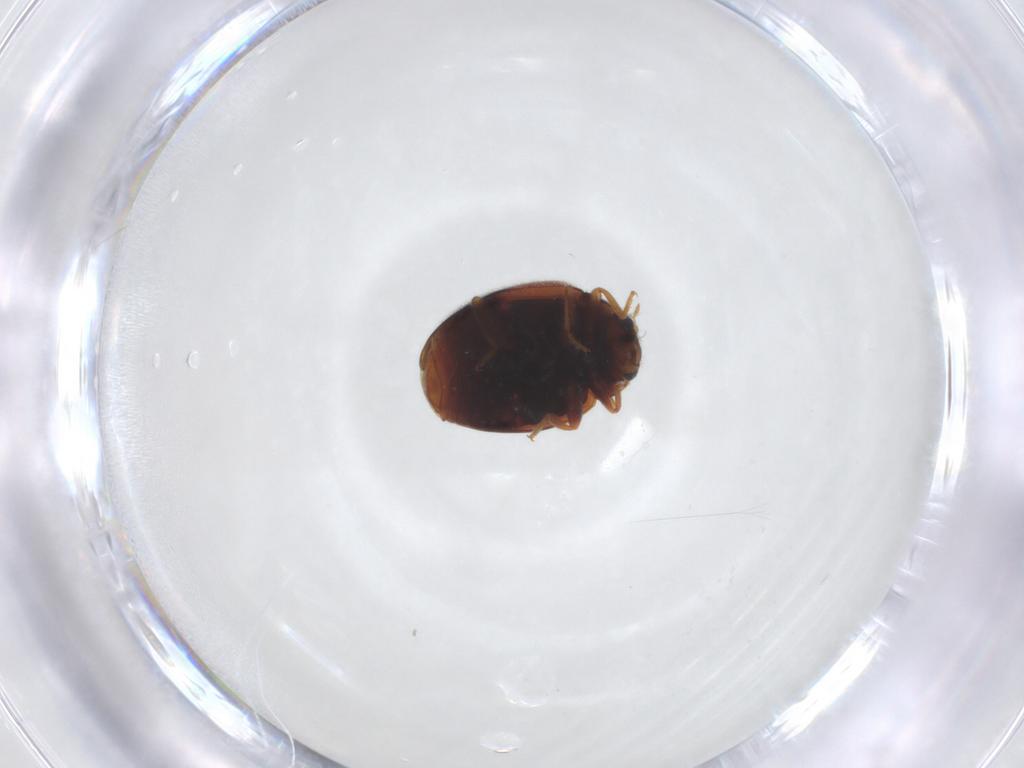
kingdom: Animalia
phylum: Arthropoda
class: Insecta
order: Coleoptera
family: Coccinellidae
